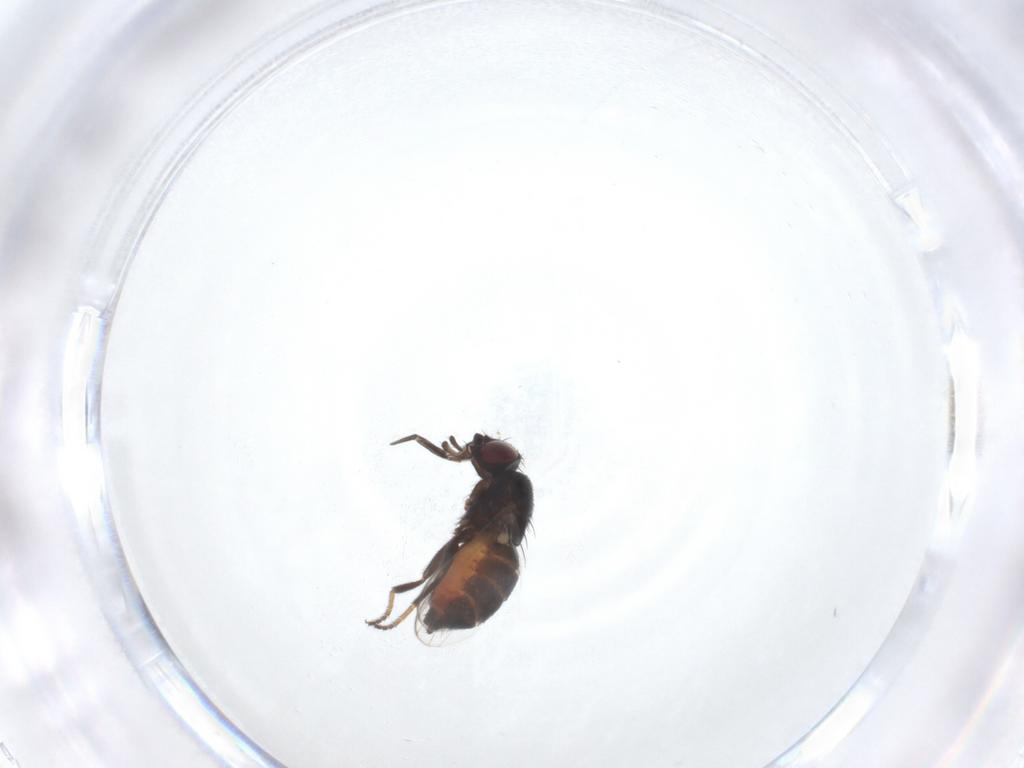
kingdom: Animalia
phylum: Arthropoda
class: Insecta
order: Diptera
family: Milichiidae
